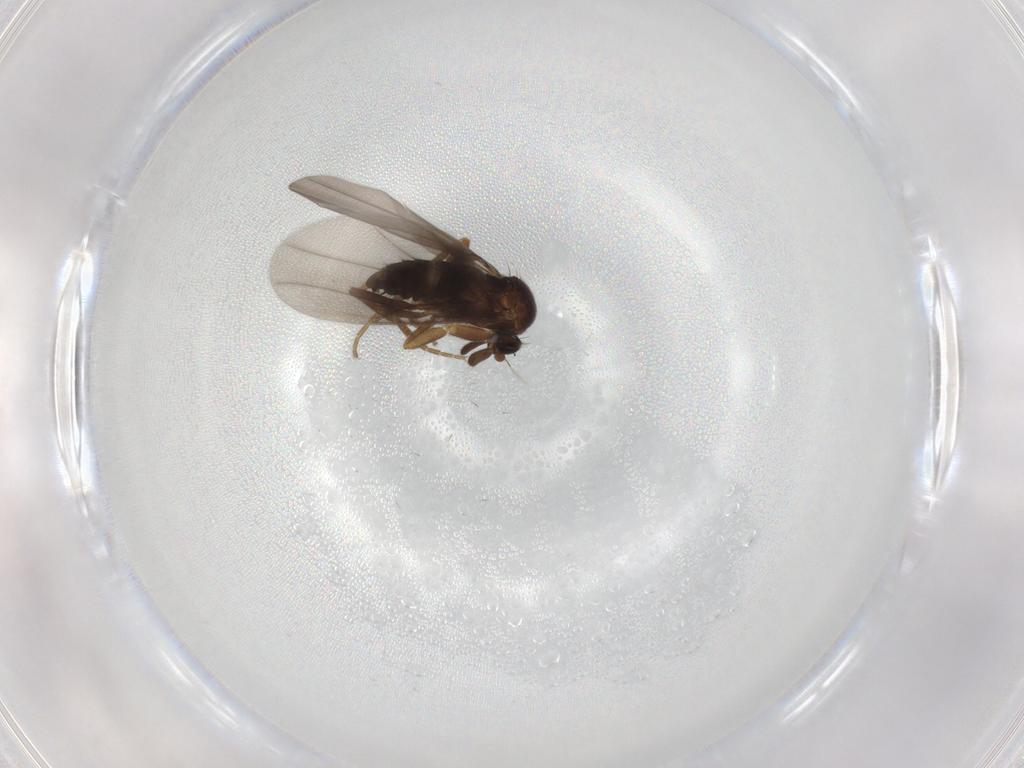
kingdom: Animalia
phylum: Arthropoda
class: Insecta
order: Diptera
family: Phoridae
